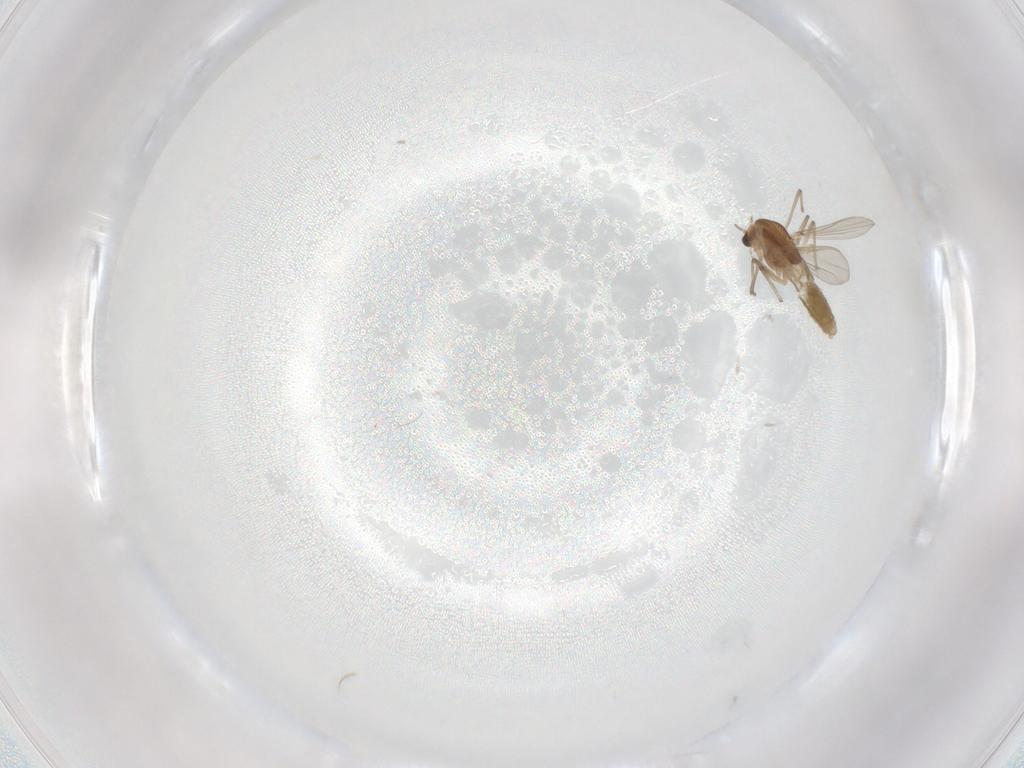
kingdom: Animalia
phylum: Arthropoda
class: Insecta
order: Diptera
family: Chironomidae
